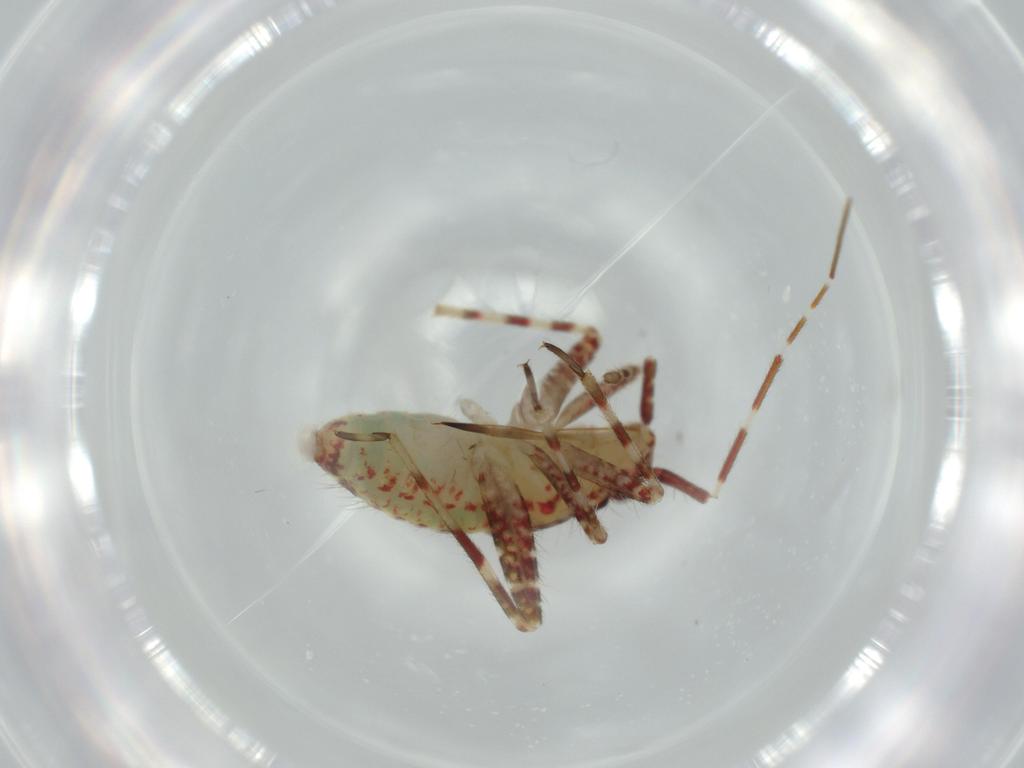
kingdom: Animalia
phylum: Arthropoda
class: Insecta
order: Hemiptera
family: Miridae
